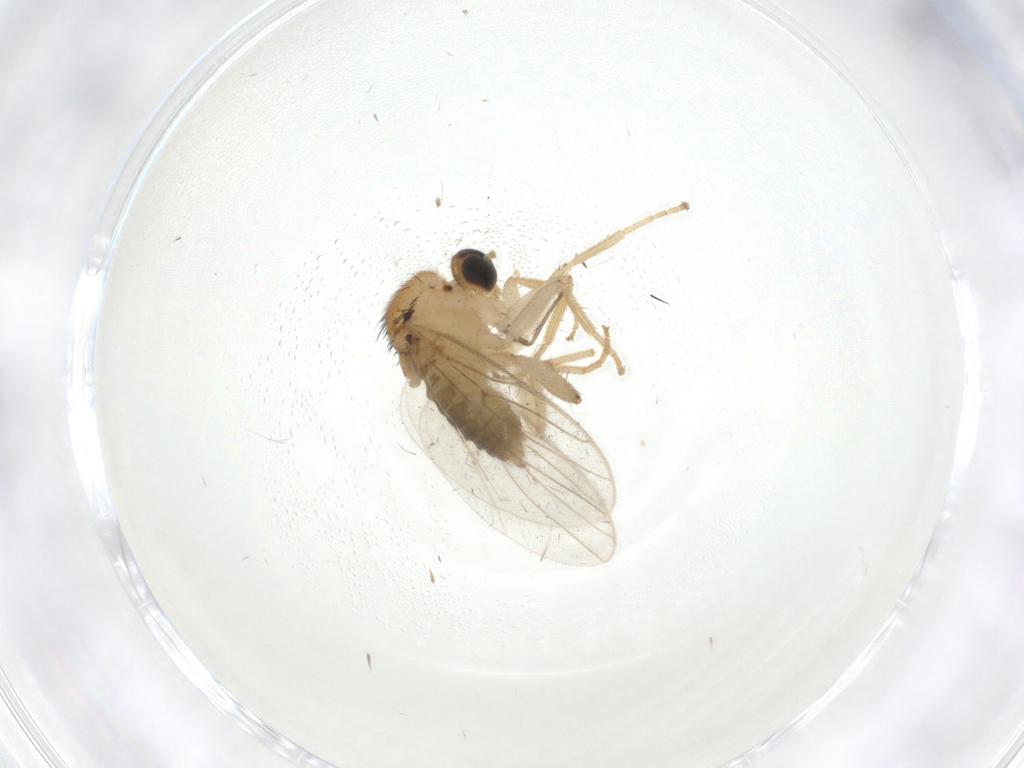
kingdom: Animalia
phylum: Arthropoda
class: Insecta
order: Diptera
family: Hybotidae
